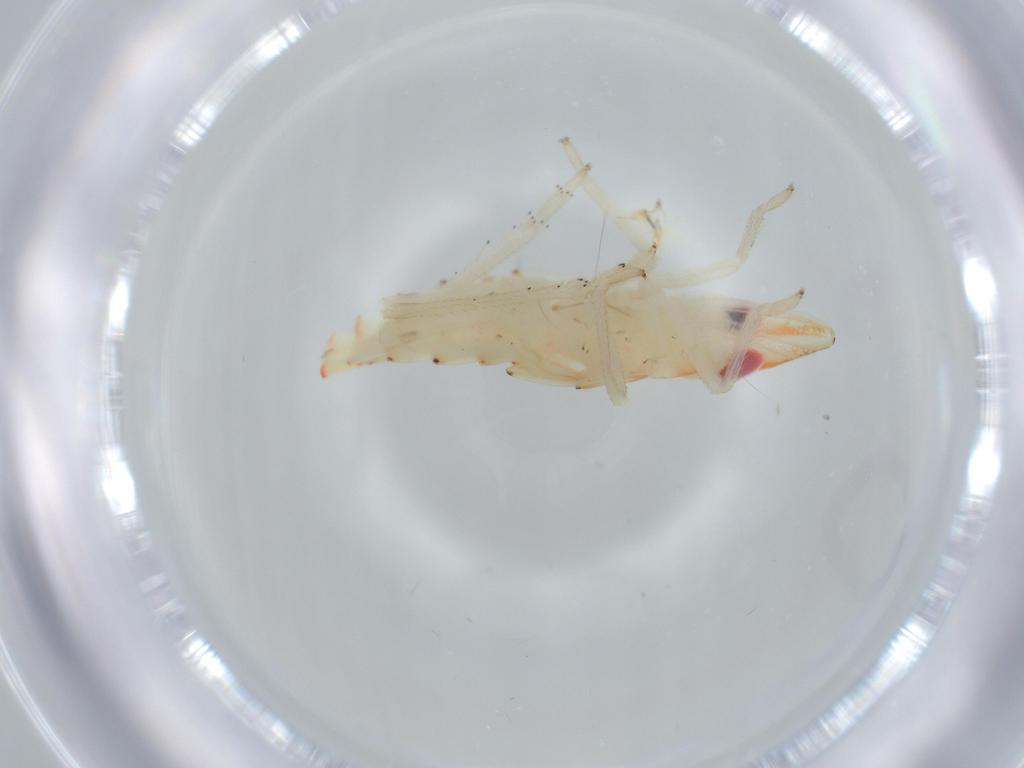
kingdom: Animalia
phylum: Arthropoda
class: Insecta
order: Hemiptera
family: Tropiduchidae
